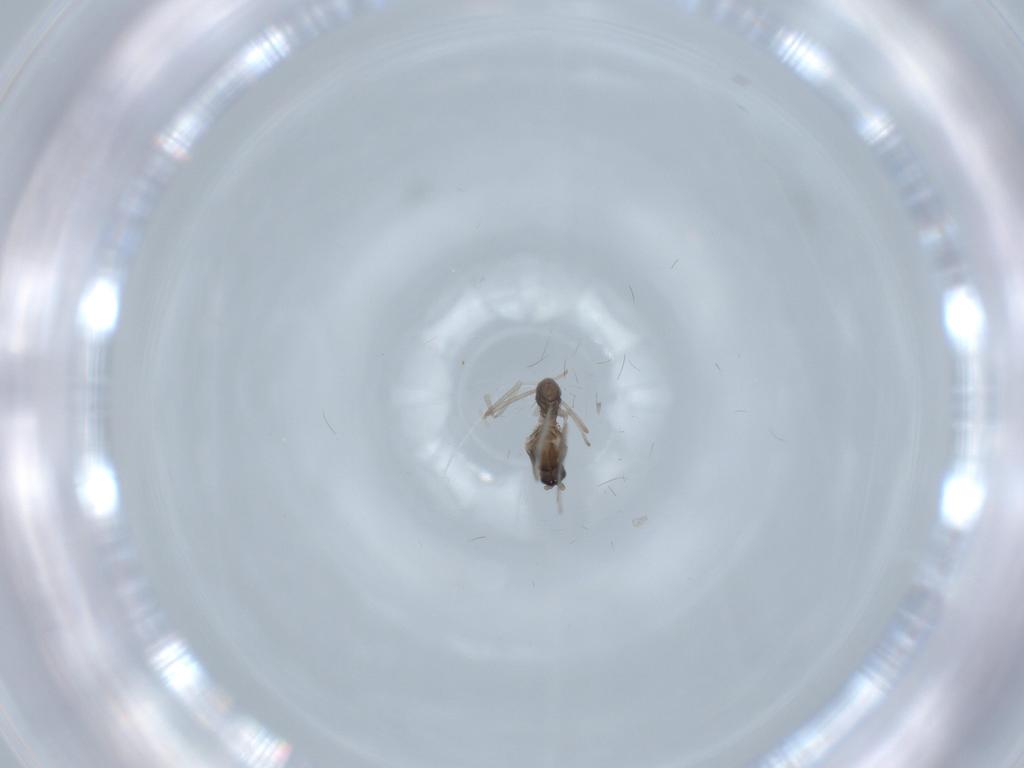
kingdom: Animalia
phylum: Arthropoda
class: Insecta
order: Diptera
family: Cecidomyiidae
